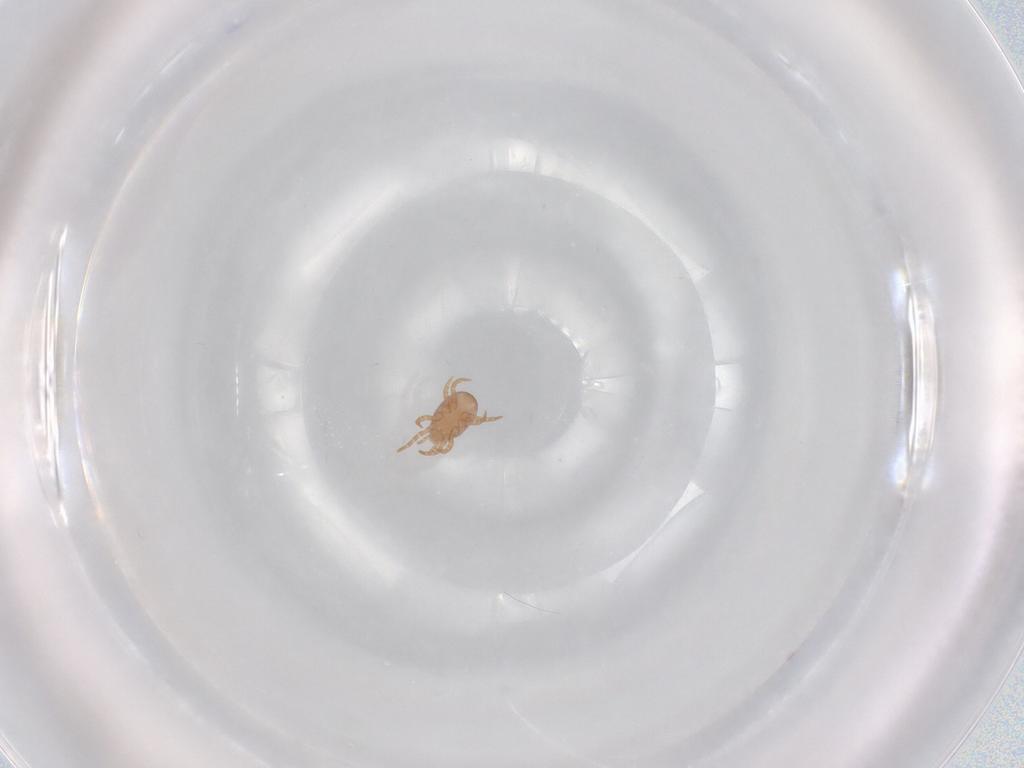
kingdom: Animalia
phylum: Arthropoda
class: Arachnida
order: Mesostigmata
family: Eviphididae
